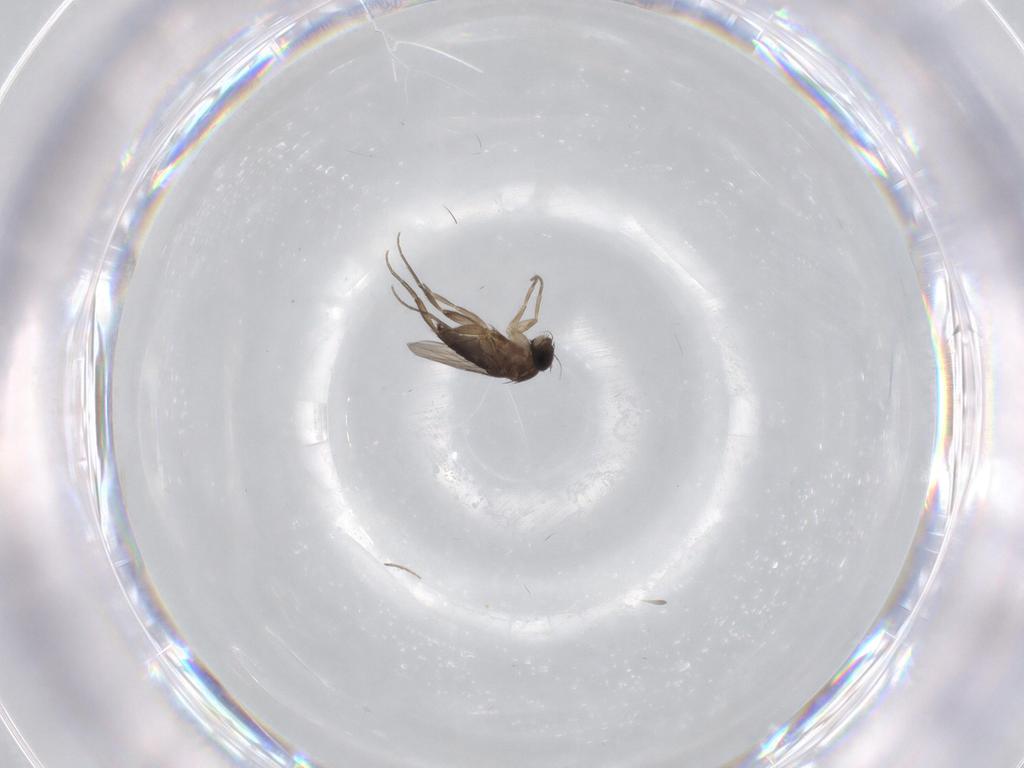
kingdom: Animalia
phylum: Arthropoda
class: Insecta
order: Diptera
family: Phoridae
